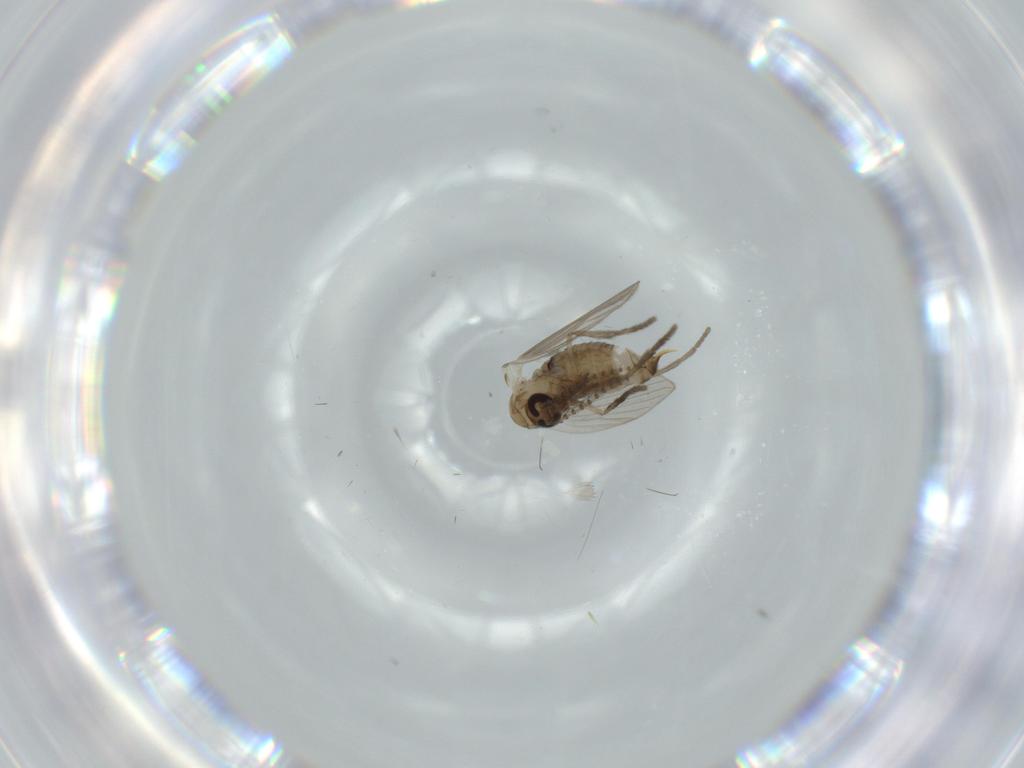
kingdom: Animalia
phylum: Arthropoda
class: Insecta
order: Diptera
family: Psychodidae
